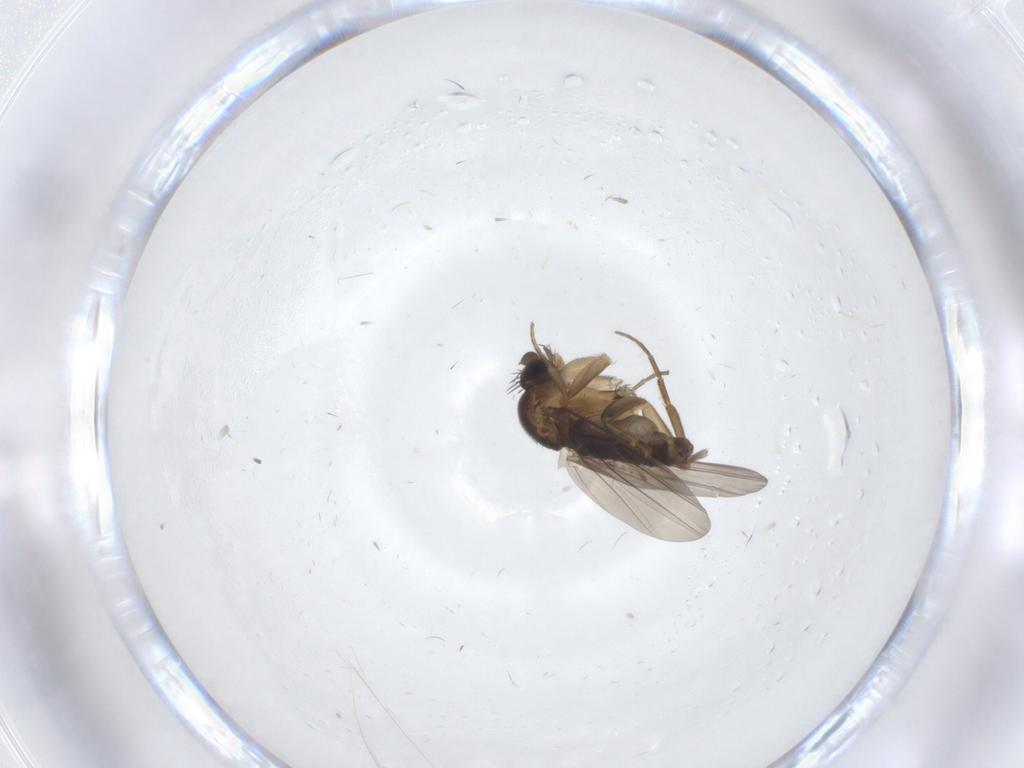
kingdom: Animalia
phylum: Arthropoda
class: Insecta
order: Diptera
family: Phoridae
